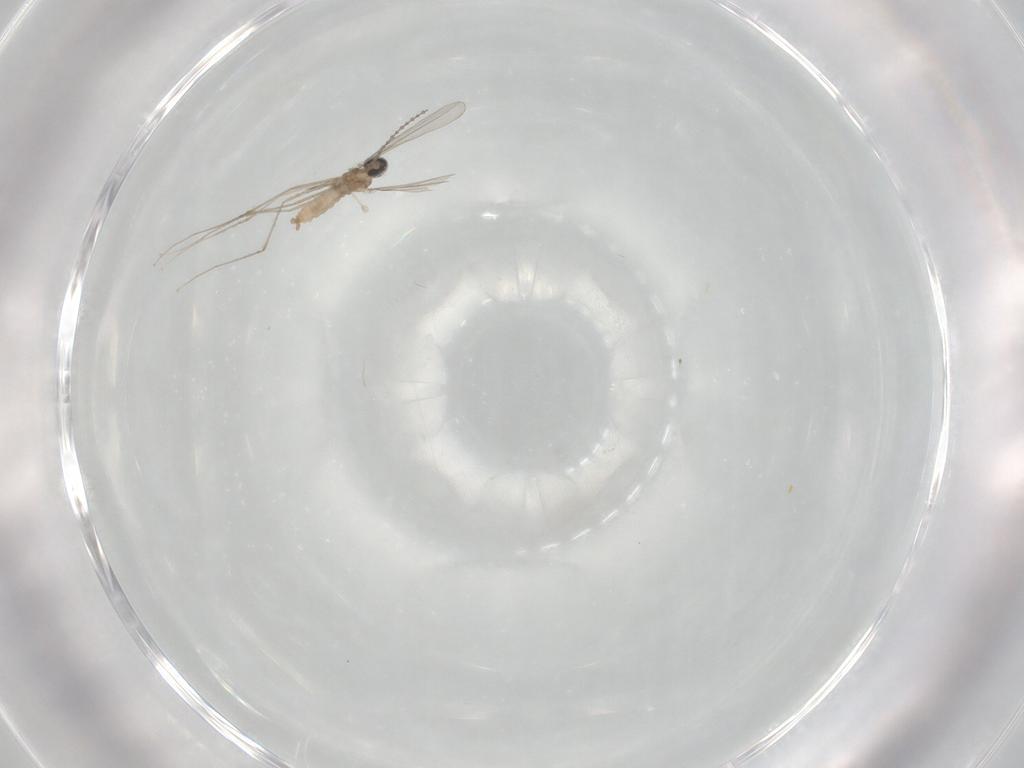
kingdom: Animalia
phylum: Arthropoda
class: Insecta
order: Diptera
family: Cecidomyiidae
